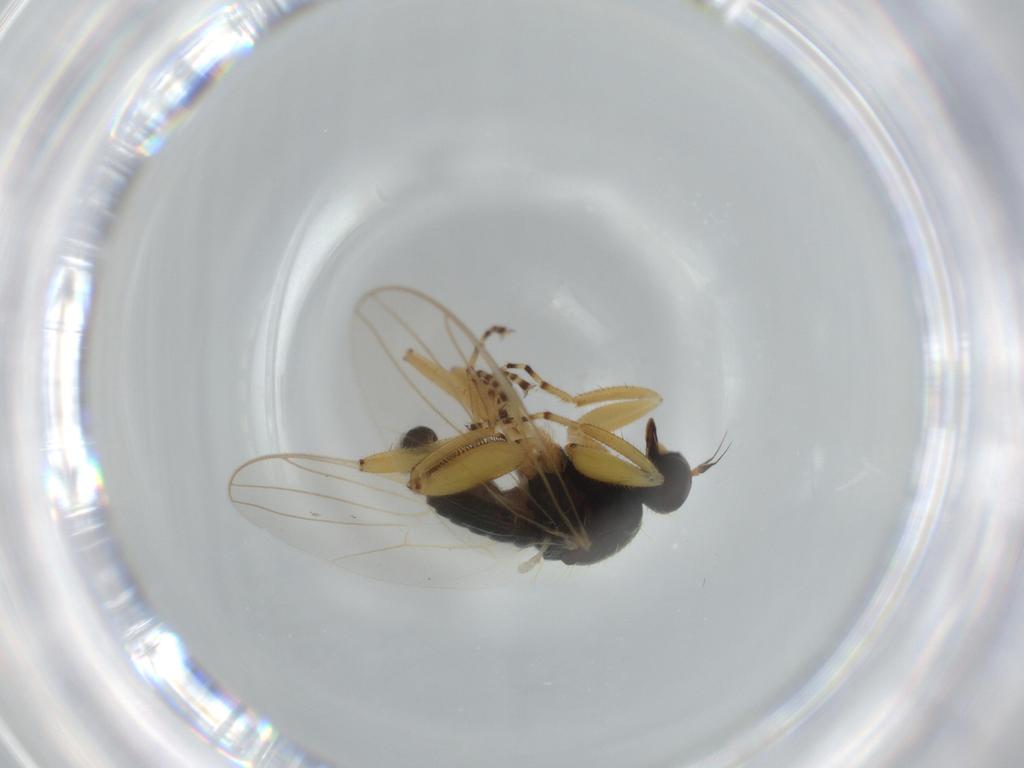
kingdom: Animalia
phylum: Arthropoda
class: Insecta
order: Diptera
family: Hybotidae
